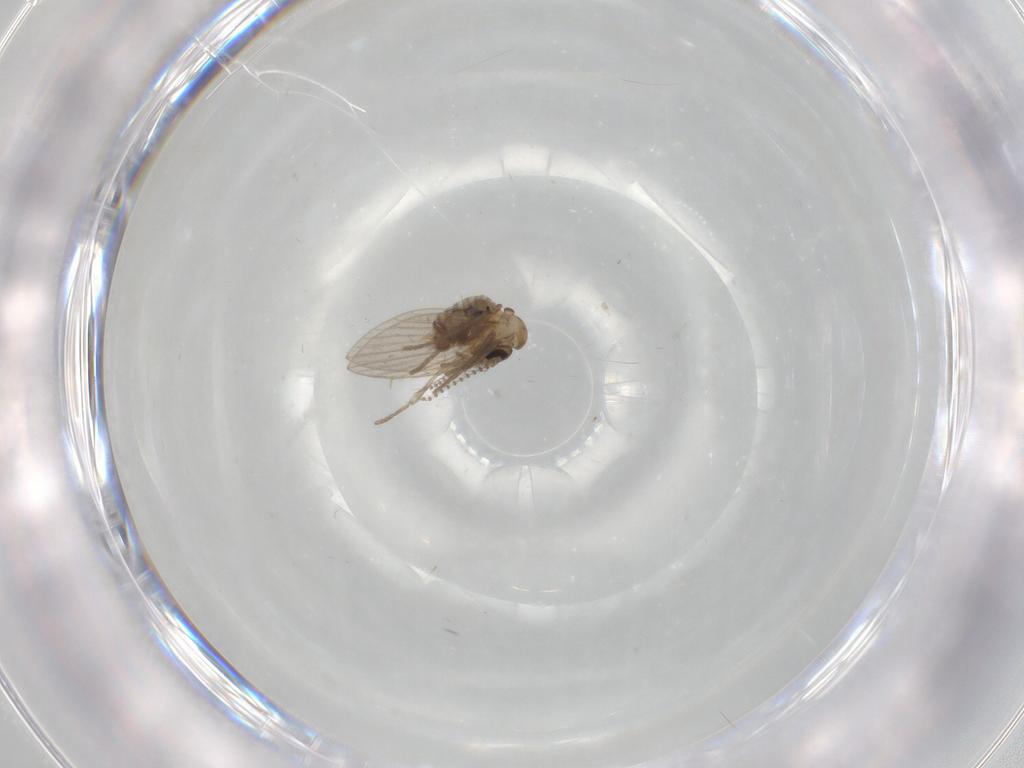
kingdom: Animalia
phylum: Arthropoda
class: Insecta
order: Diptera
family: Cecidomyiidae
